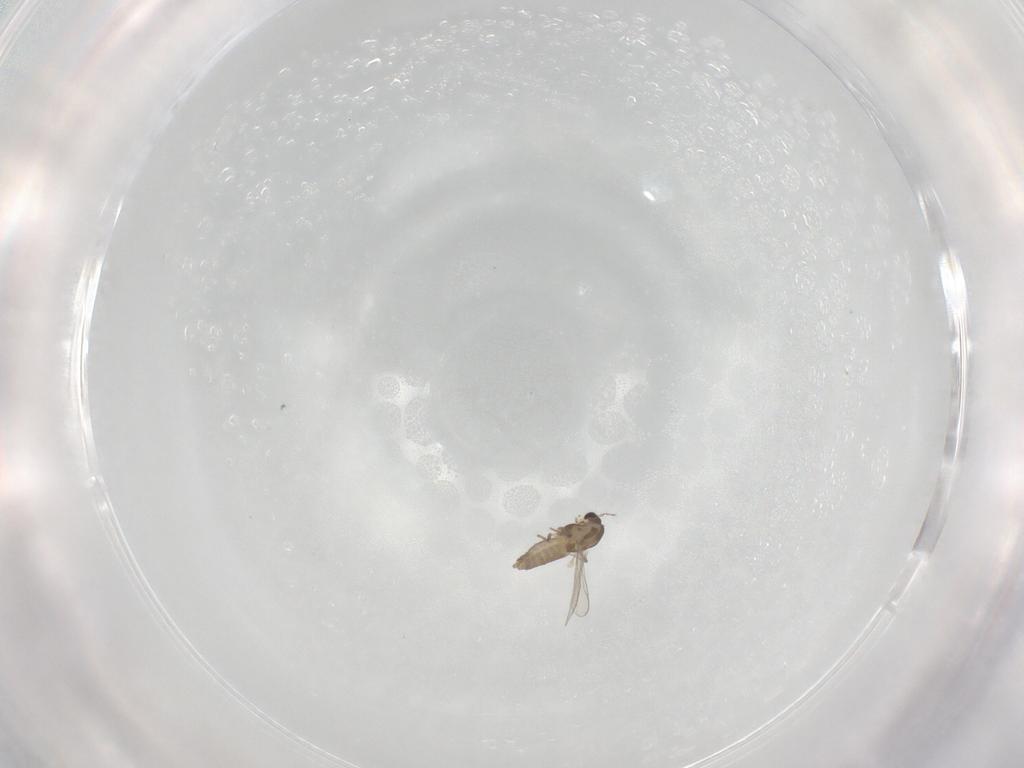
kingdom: Animalia
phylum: Arthropoda
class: Insecta
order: Diptera
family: Chironomidae
